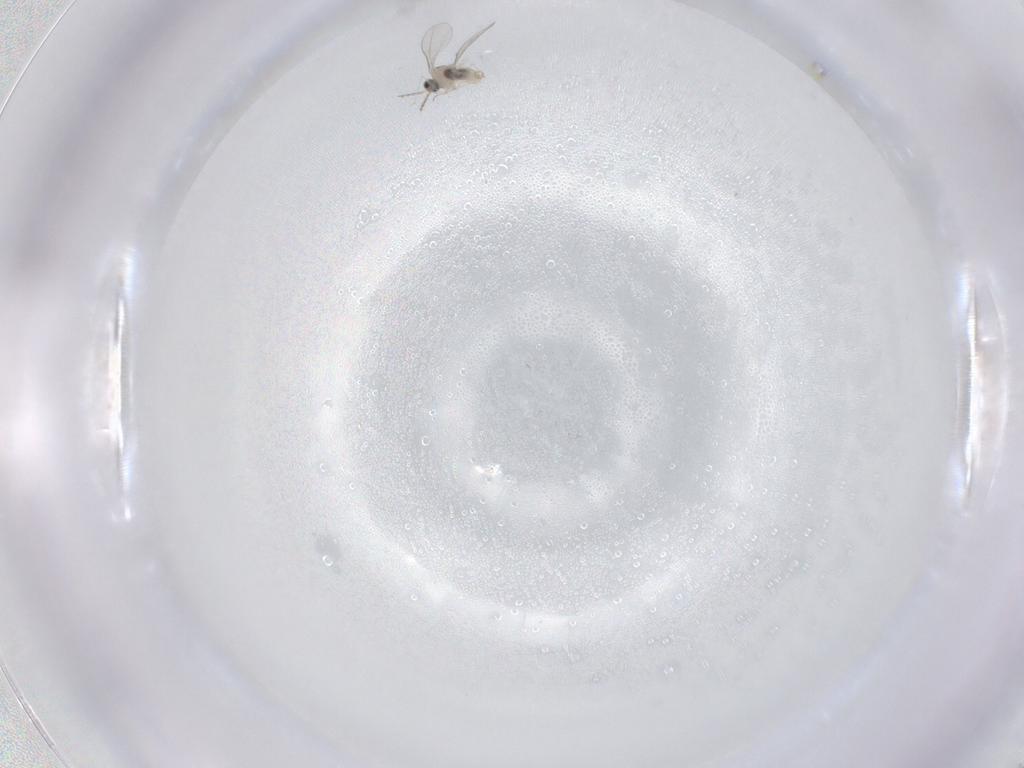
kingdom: Animalia
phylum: Arthropoda
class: Insecta
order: Diptera
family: Cecidomyiidae
